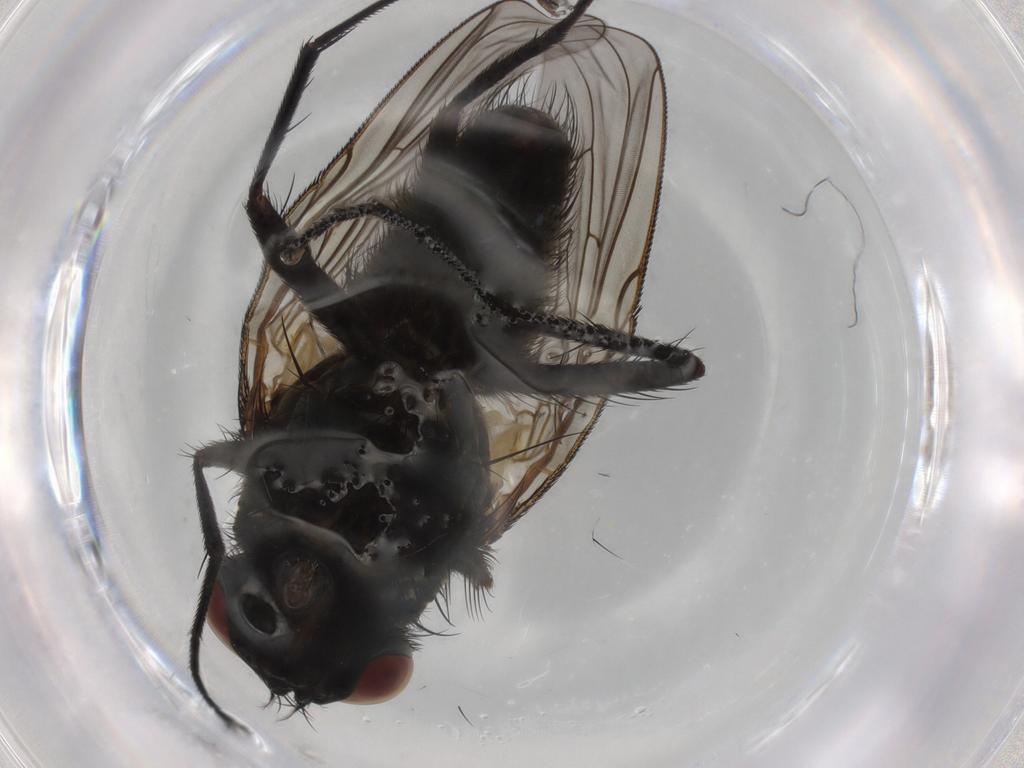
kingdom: Animalia
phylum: Arthropoda
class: Insecta
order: Diptera
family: Muscidae
